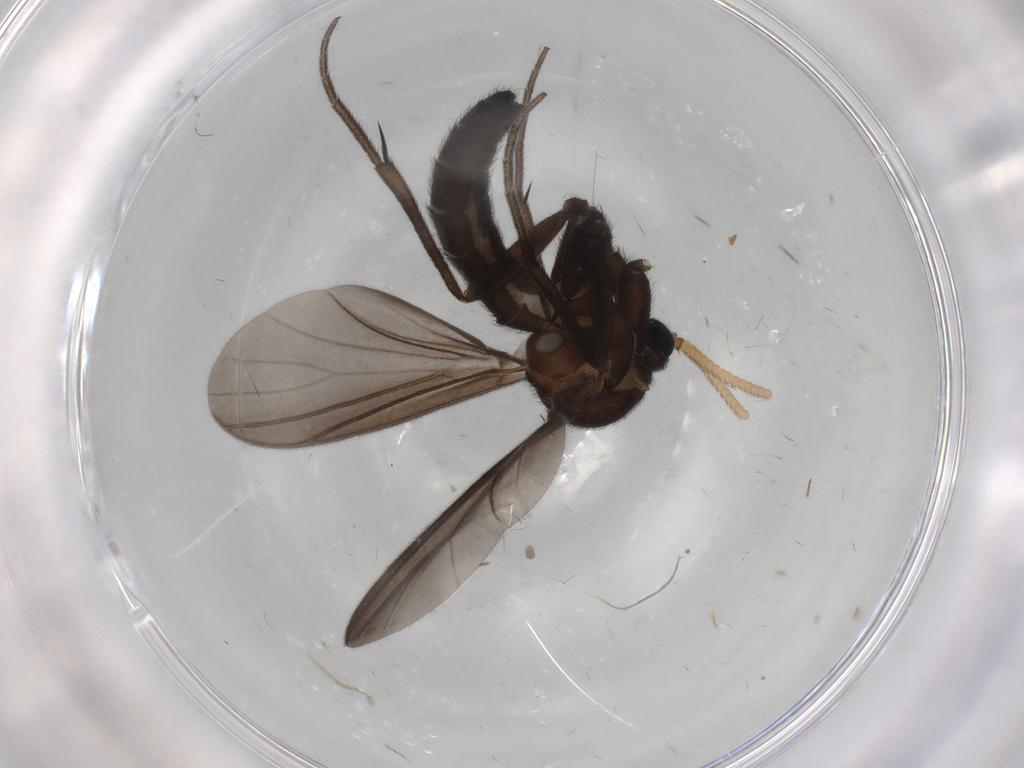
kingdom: Animalia
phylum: Arthropoda
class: Insecta
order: Diptera
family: Mycetophilidae
